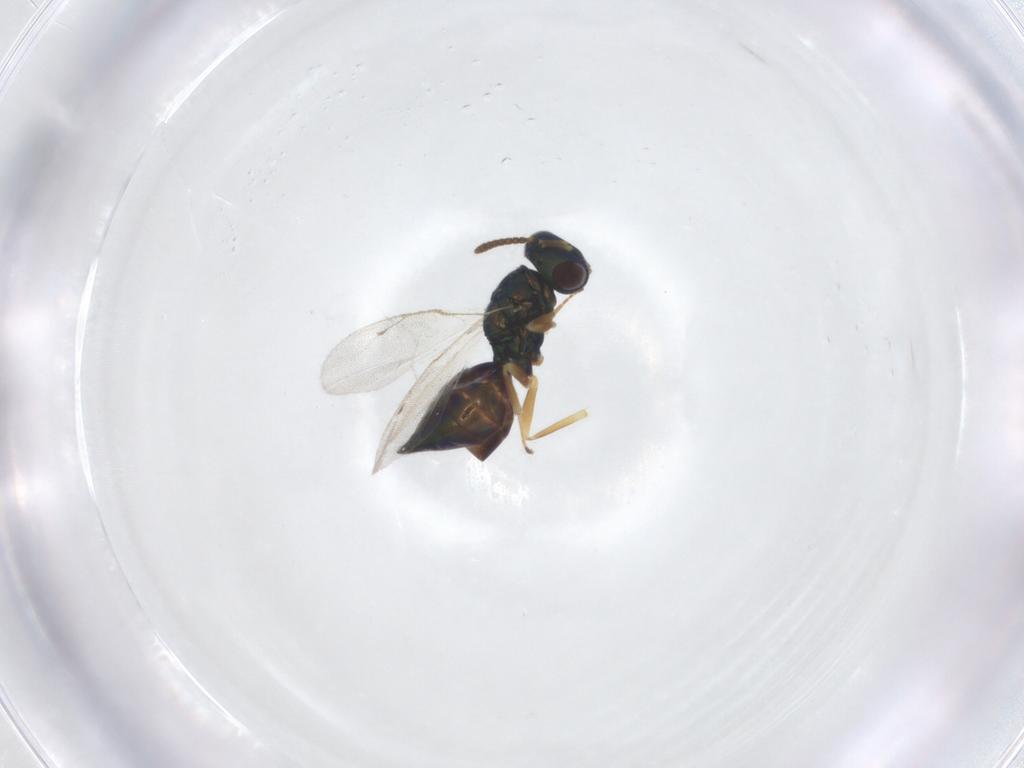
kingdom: Animalia
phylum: Arthropoda
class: Insecta
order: Hymenoptera
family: Pteromalidae
